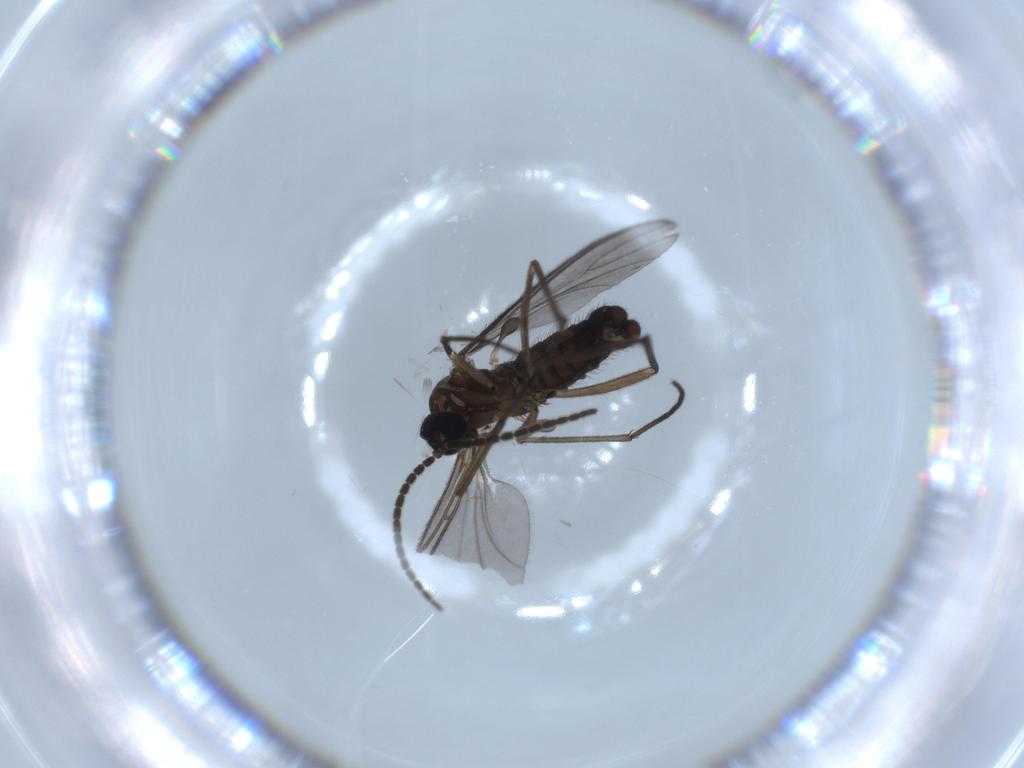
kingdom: Animalia
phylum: Arthropoda
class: Insecta
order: Diptera
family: Sciaridae
